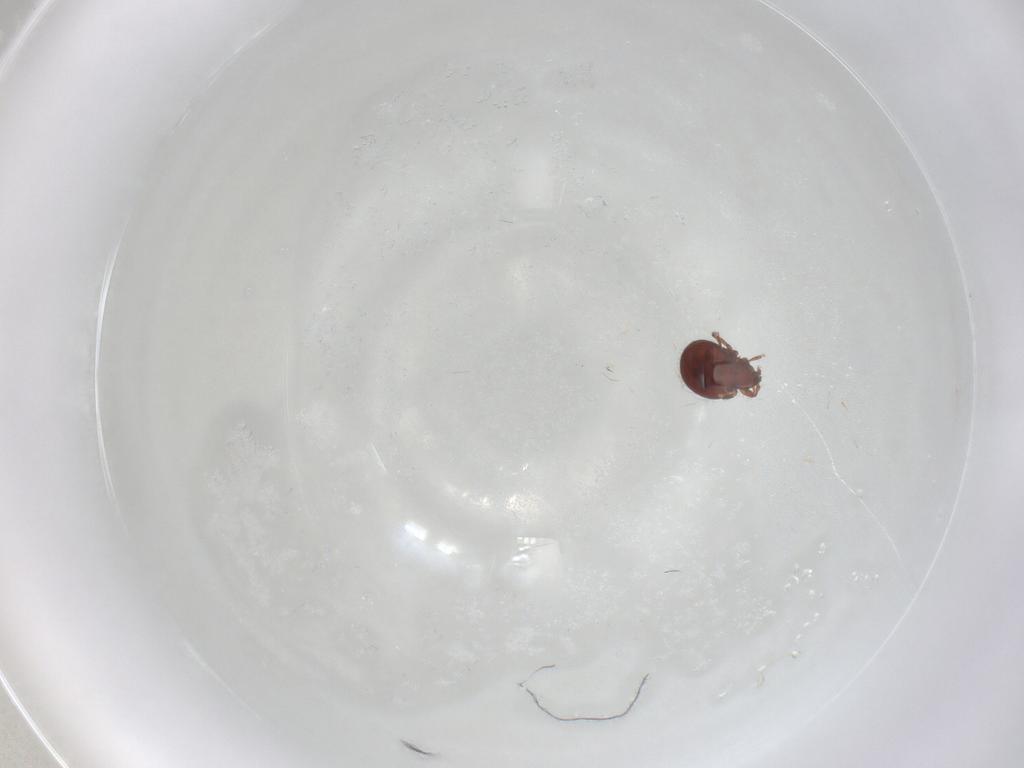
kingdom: Animalia
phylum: Arthropoda
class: Arachnida
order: Sarcoptiformes
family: Oribatulidae
